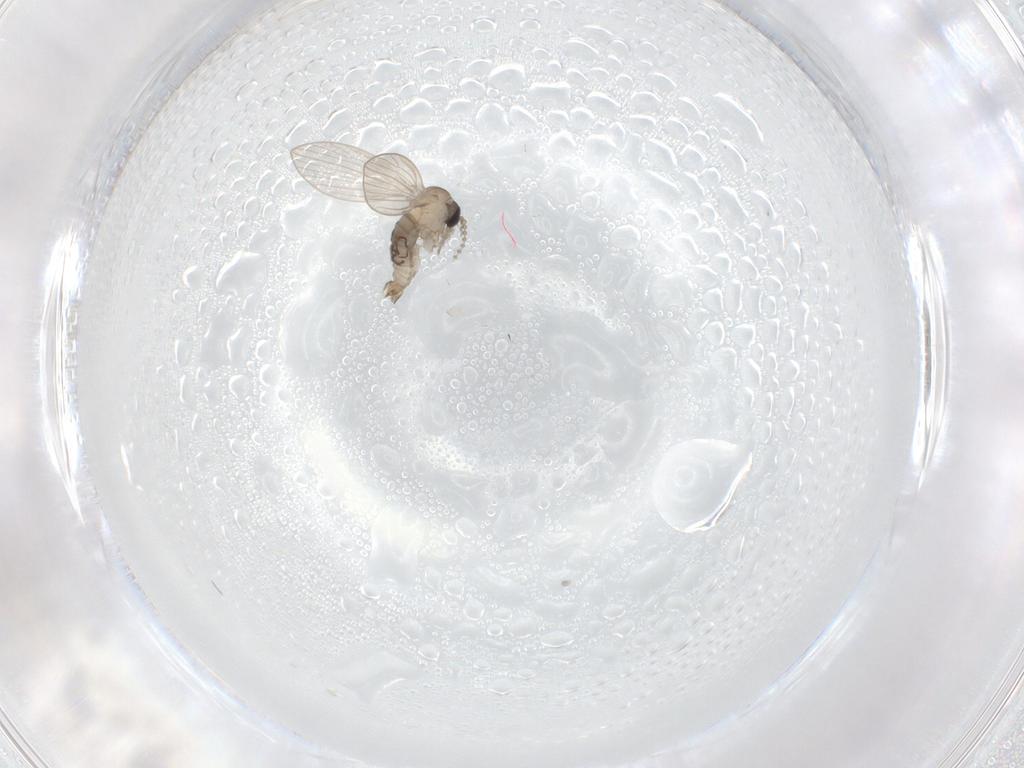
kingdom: Animalia
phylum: Arthropoda
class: Insecta
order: Diptera
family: Psychodidae
